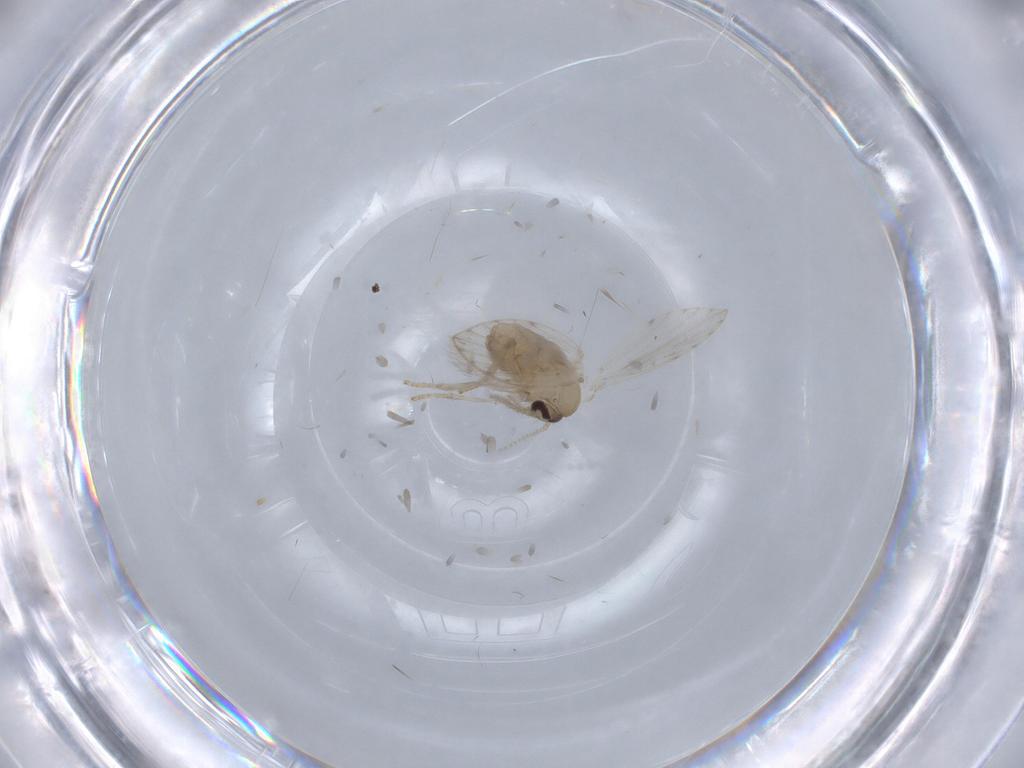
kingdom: Animalia
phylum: Arthropoda
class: Insecta
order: Diptera
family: Psychodidae
